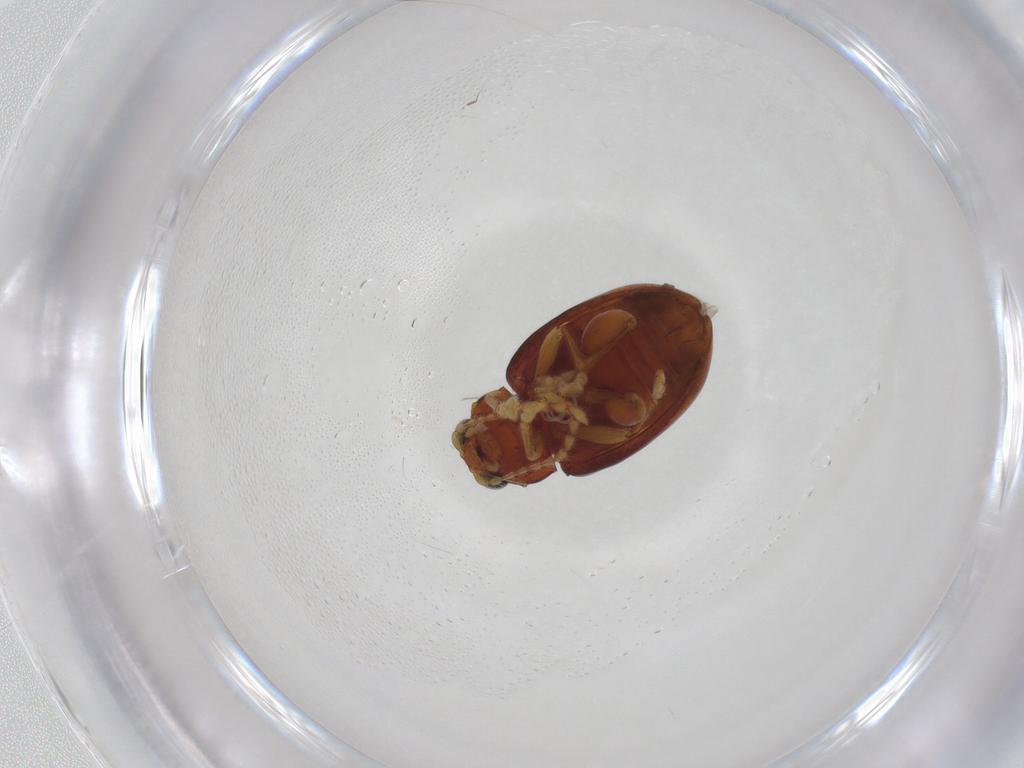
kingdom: Animalia
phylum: Arthropoda
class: Insecta
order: Coleoptera
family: Chrysomelidae
